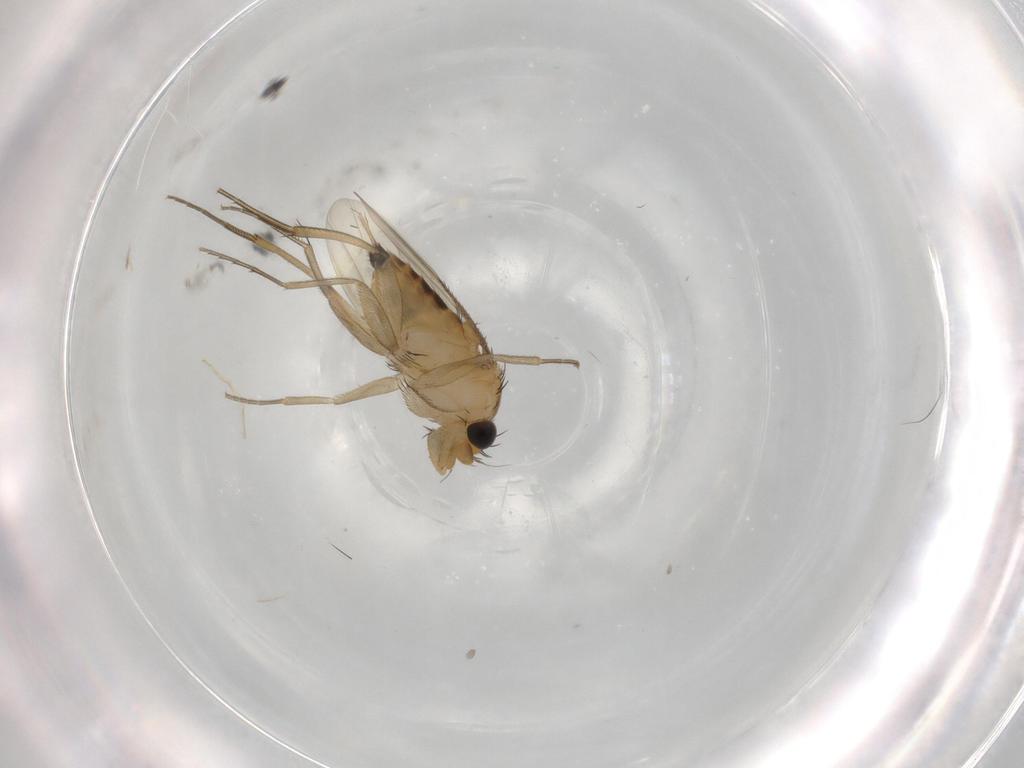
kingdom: Animalia
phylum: Arthropoda
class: Insecta
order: Diptera
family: Phoridae
